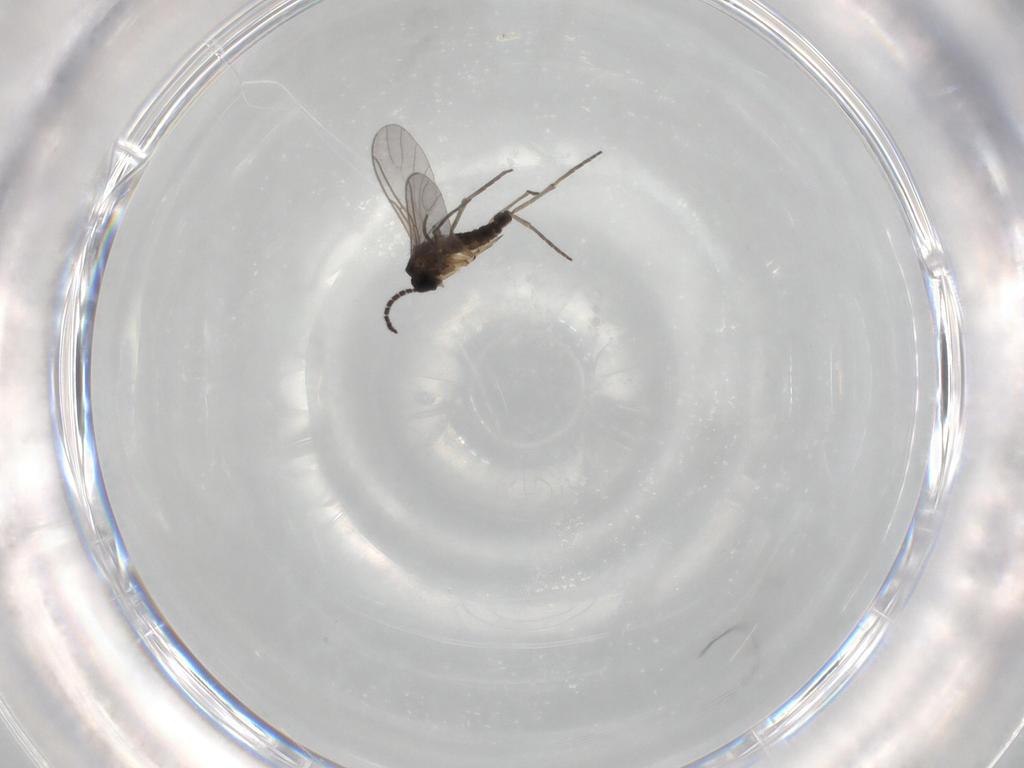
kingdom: Animalia
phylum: Arthropoda
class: Insecta
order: Diptera
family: Sciaridae
